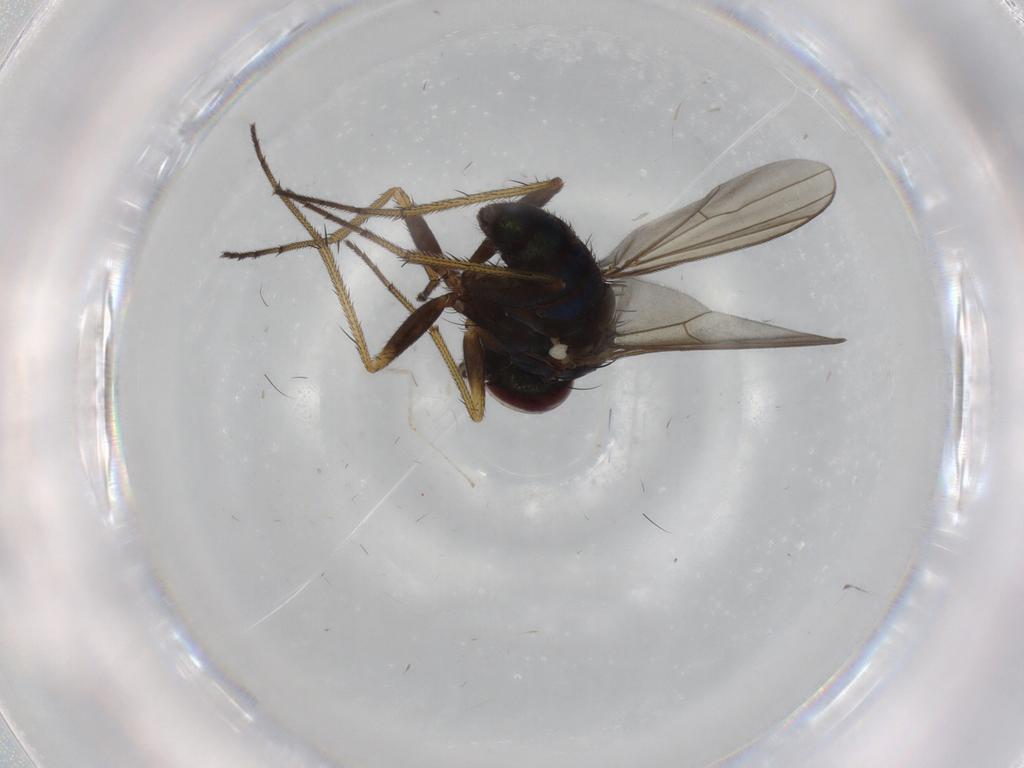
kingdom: Animalia
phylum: Arthropoda
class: Insecta
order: Diptera
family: Dolichopodidae
